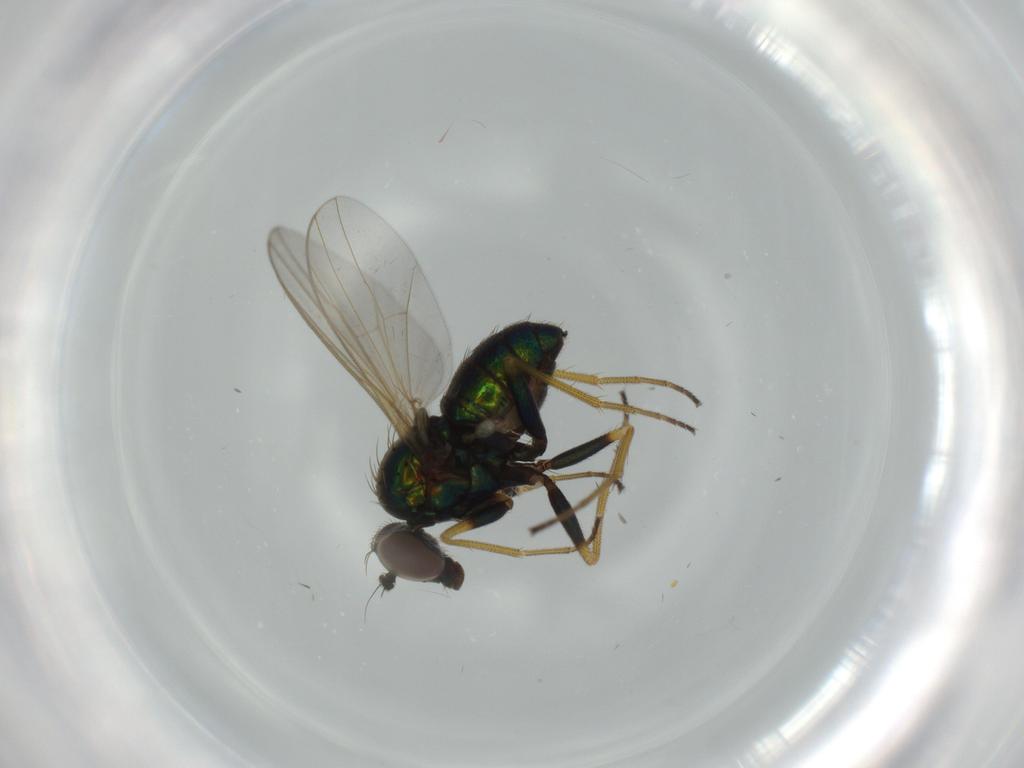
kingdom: Animalia
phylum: Arthropoda
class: Insecta
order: Diptera
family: Dolichopodidae
